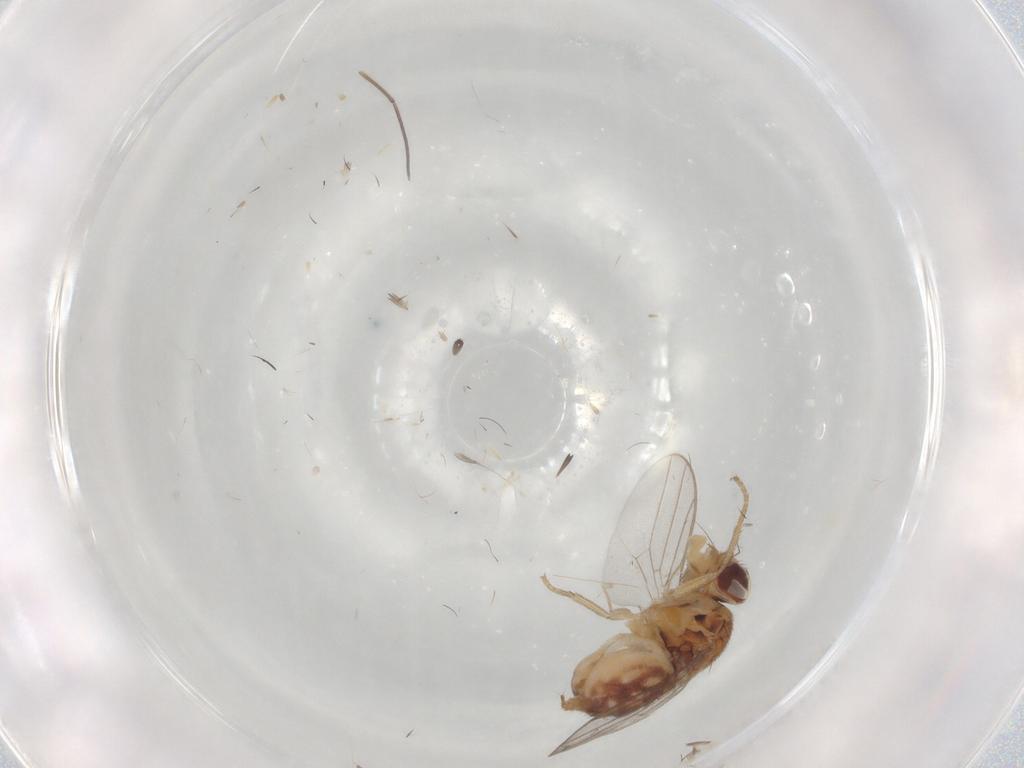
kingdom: Animalia
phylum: Arthropoda
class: Insecta
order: Diptera
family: Chloropidae
